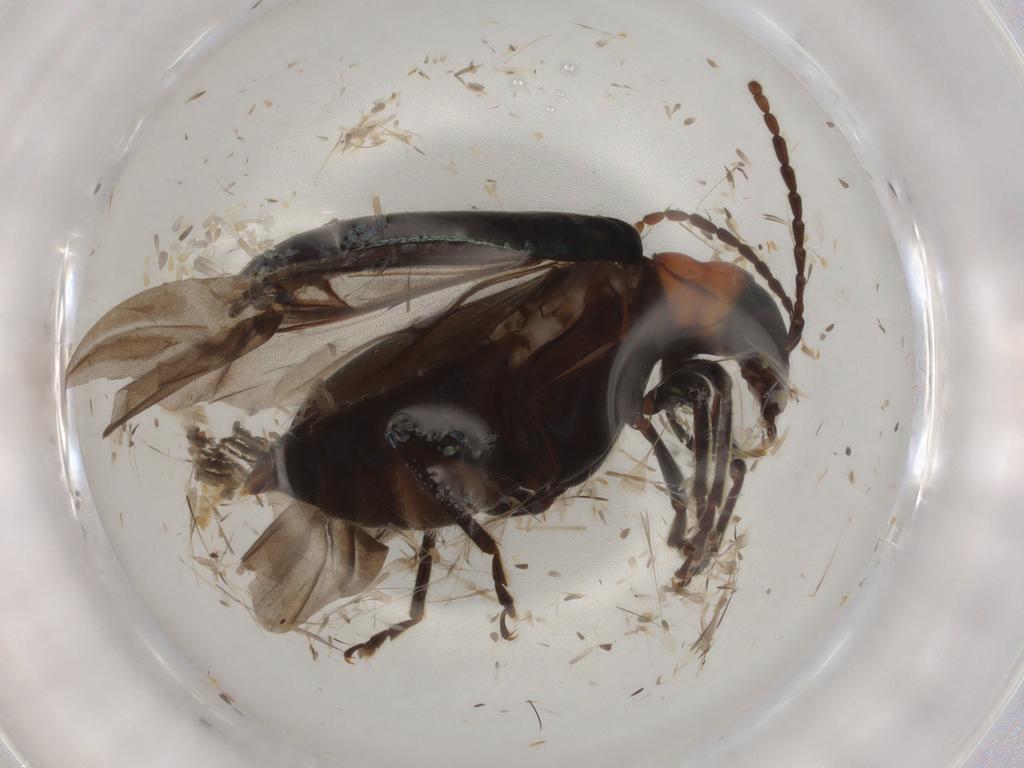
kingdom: Animalia
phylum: Arthropoda
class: Insecta
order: Coleoptera
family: Chrysomelidae
